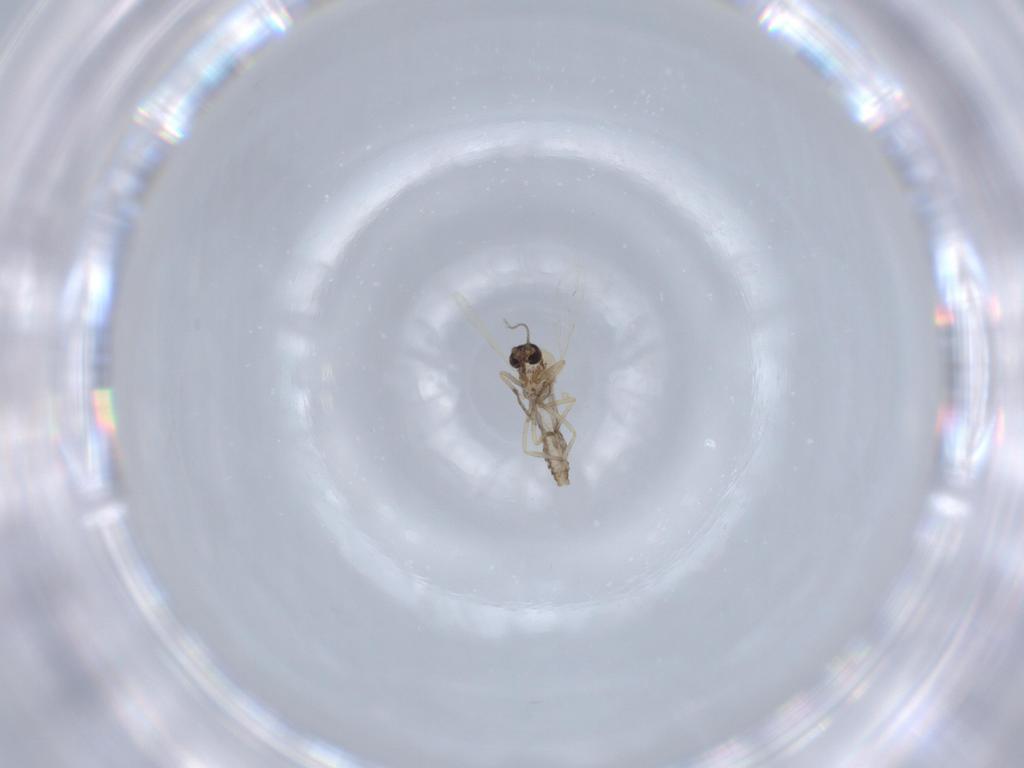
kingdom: Animalia
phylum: Arthropoda
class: Insecta
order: Diptera
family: Ceratopogonidae
